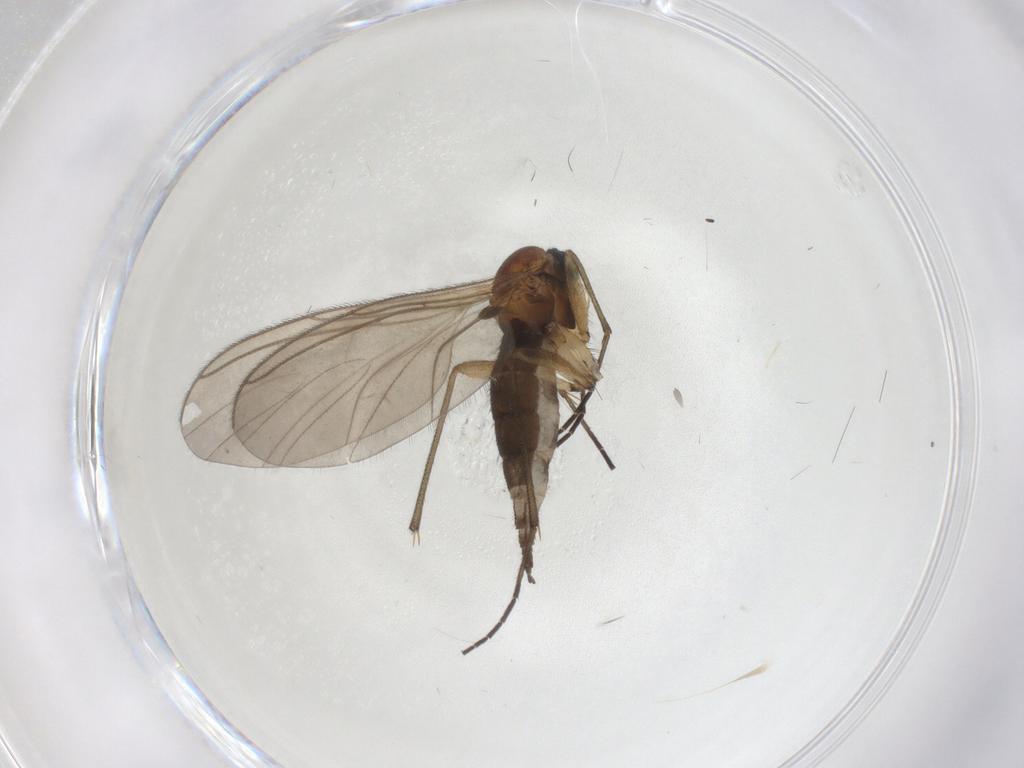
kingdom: Animalia
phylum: Arthropoda
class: Insecta
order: Diptera
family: Sciaridae
